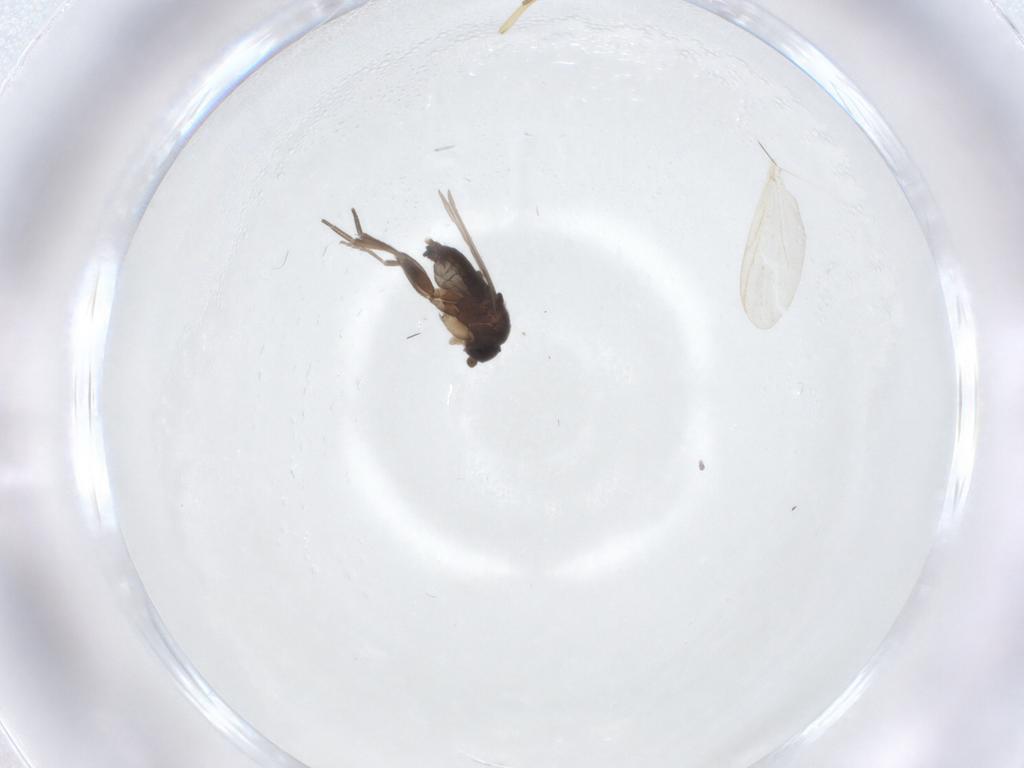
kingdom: Animalia
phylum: Arthropoda
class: Insecta
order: Diptera
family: Phoridae
